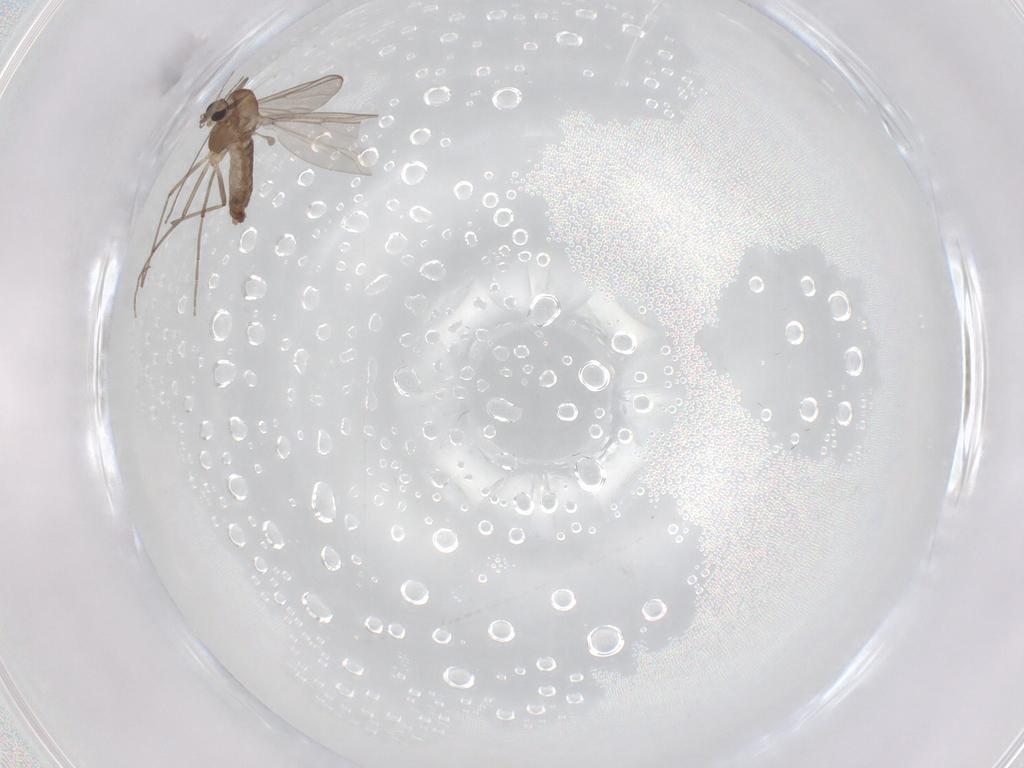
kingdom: Animalia
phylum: Arthropoda
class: Insecta
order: Diptera
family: Chironomidae
